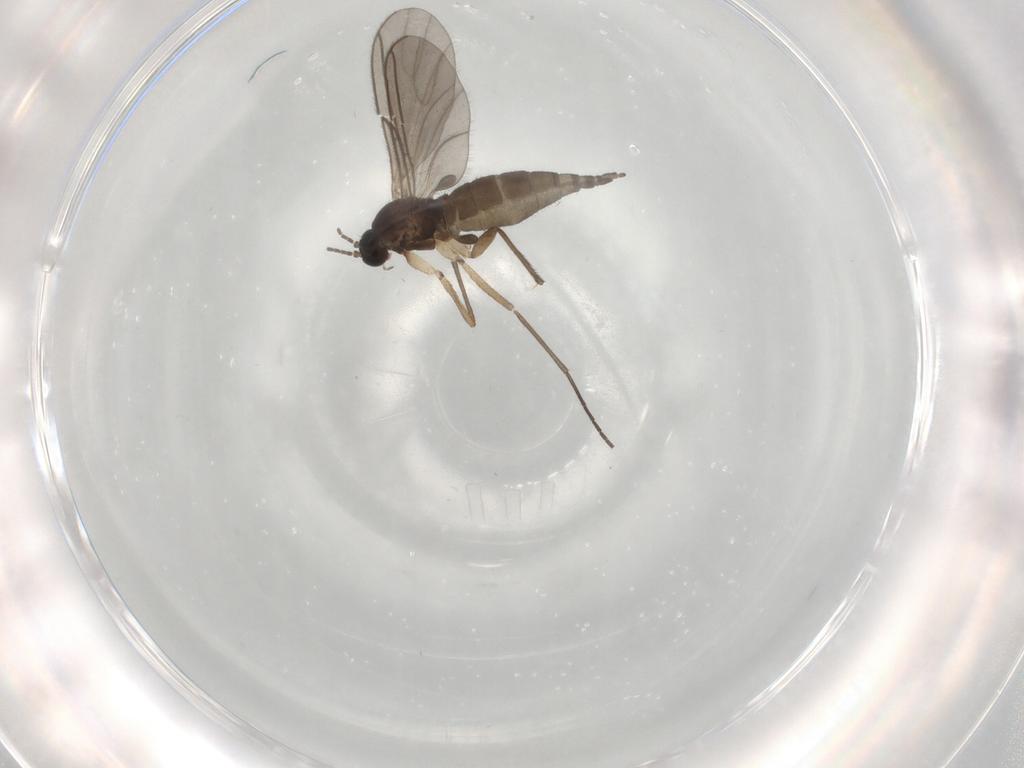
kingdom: Animalia
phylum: Arthropoda
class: Insecta
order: Diptera
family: Sciaridae
